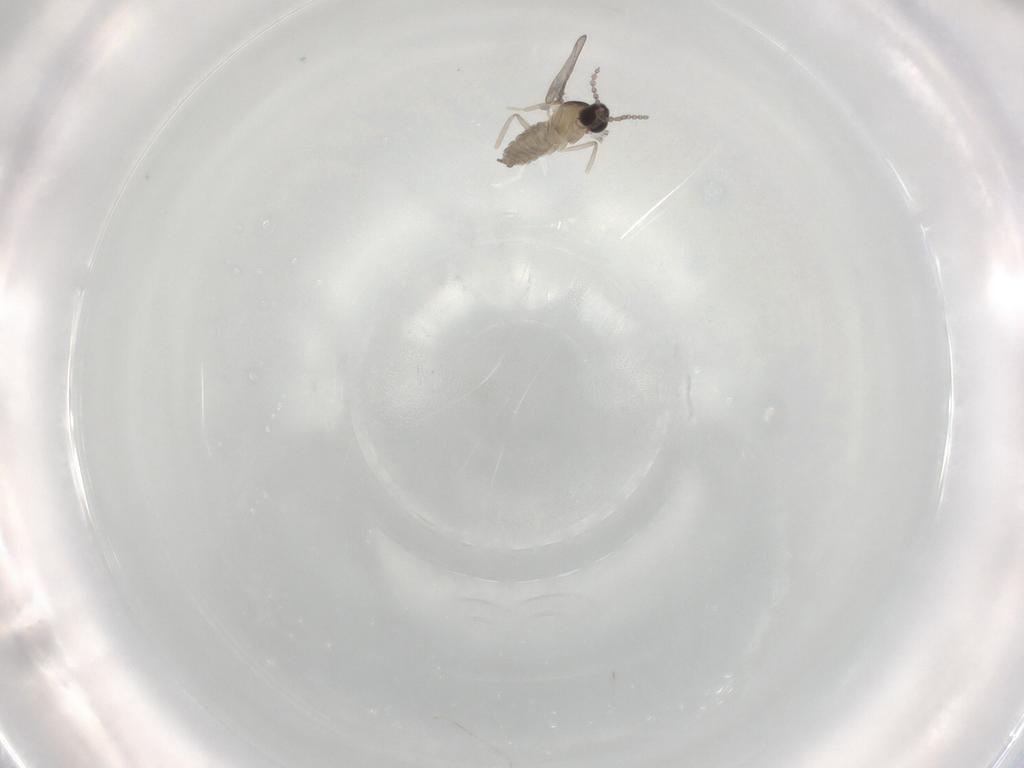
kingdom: Animalia
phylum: Arthropoda
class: Insecta
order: Diptera
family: Cecidomyiidae
